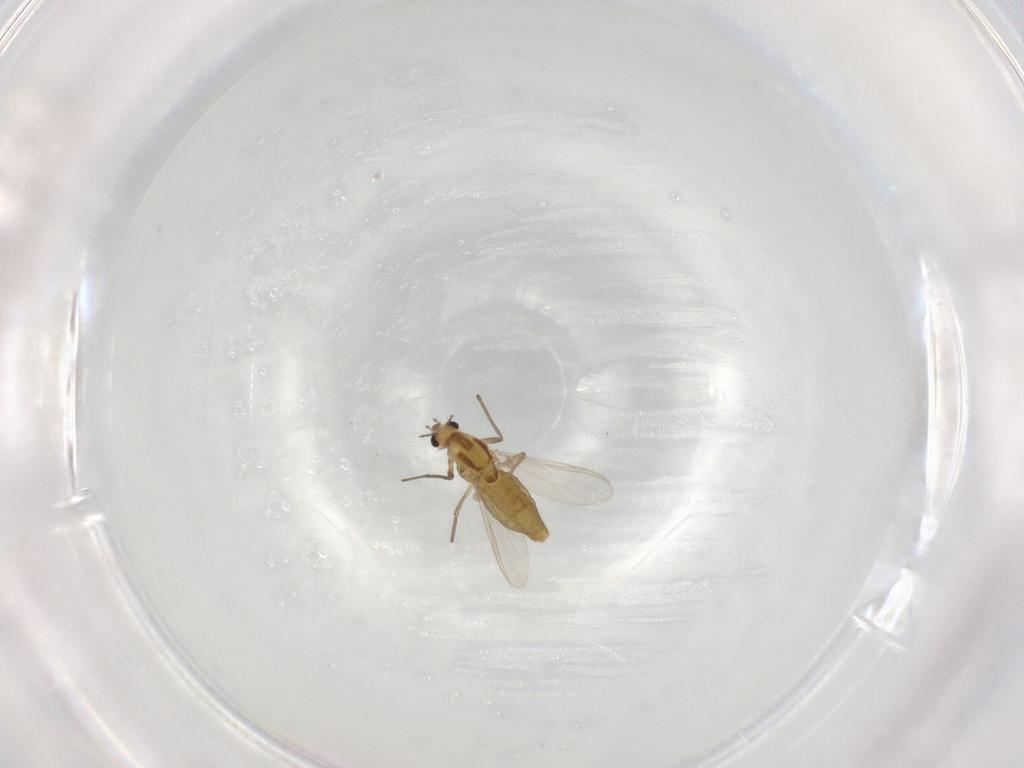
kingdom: Animalia
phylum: Arthropoda
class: Insecta
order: Diptera
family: Chironomidae
